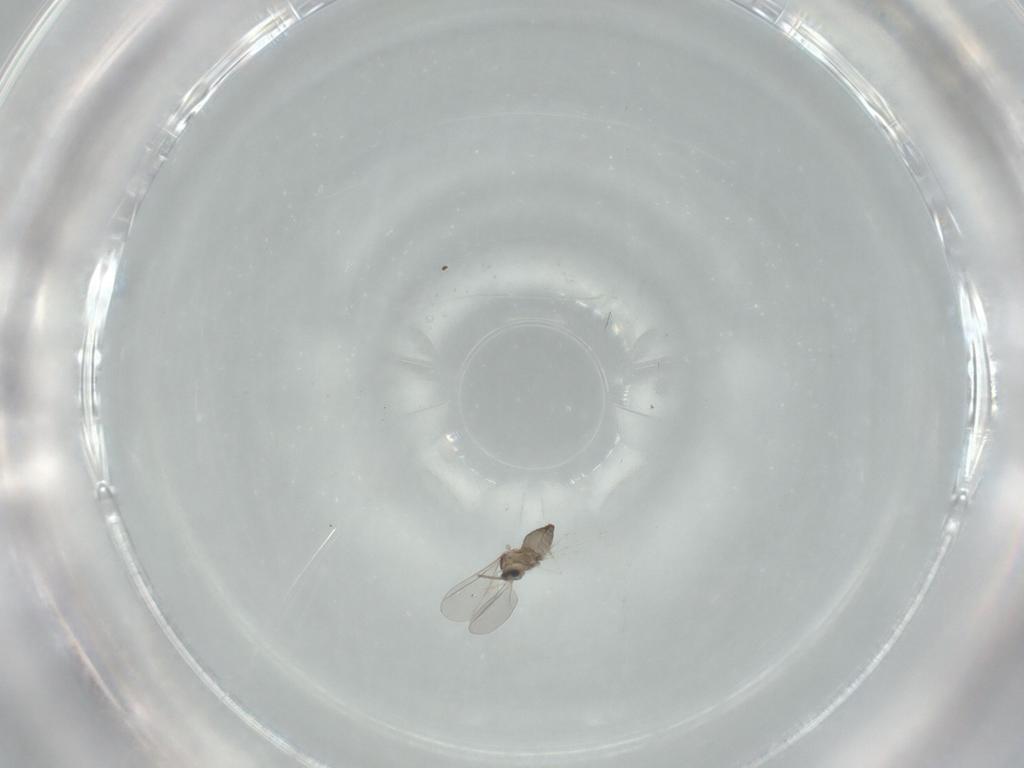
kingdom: Animalia
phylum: Arthropoda
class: Insecta
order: Diptera
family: Cecidomyiidae
